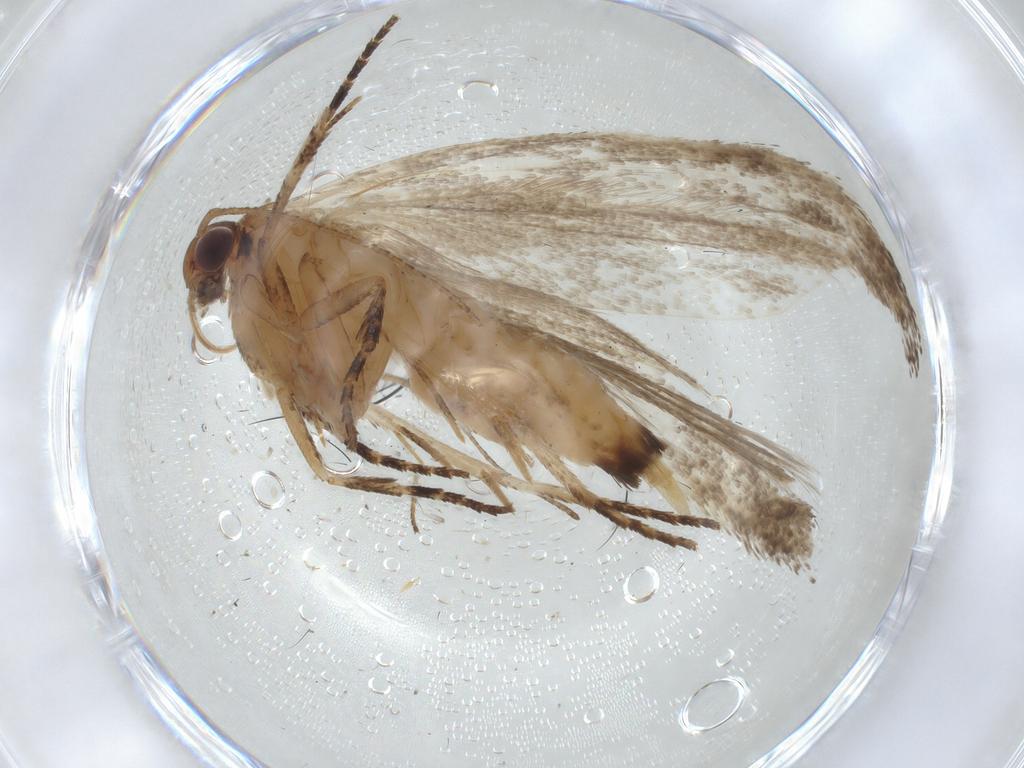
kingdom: Animalia
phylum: Arthropoda
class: Insecta
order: Lepidoptera
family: Gelechiidae
